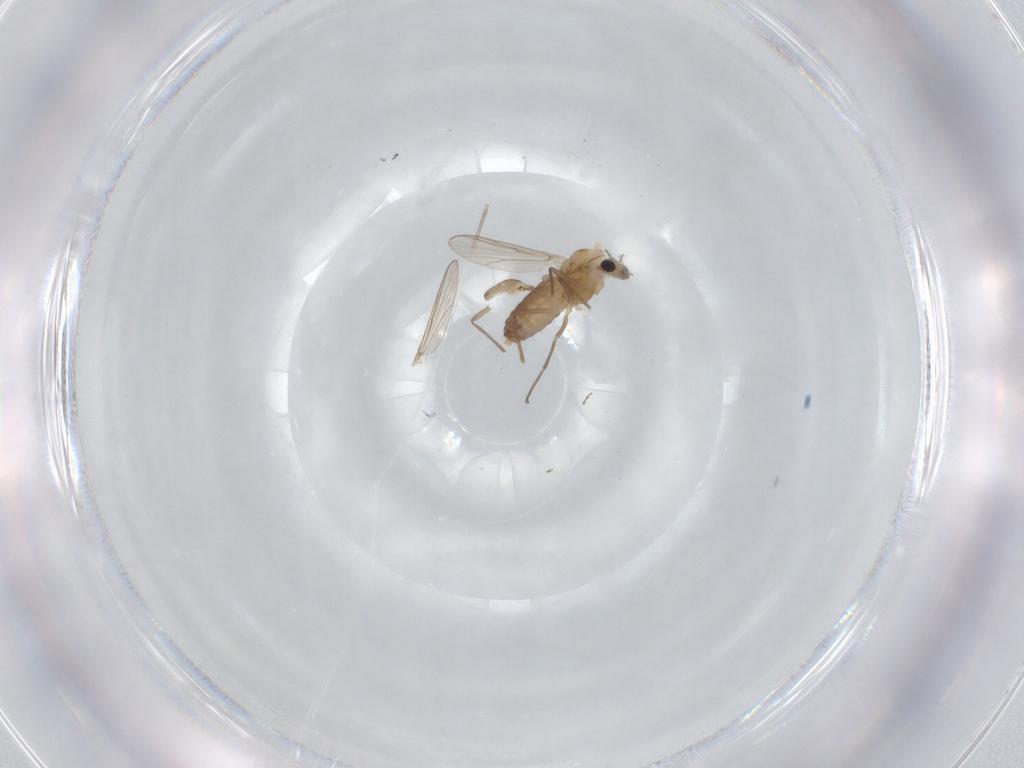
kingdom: Animalia
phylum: Arthropoda
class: Insecta
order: Diptera
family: Chironomidae
